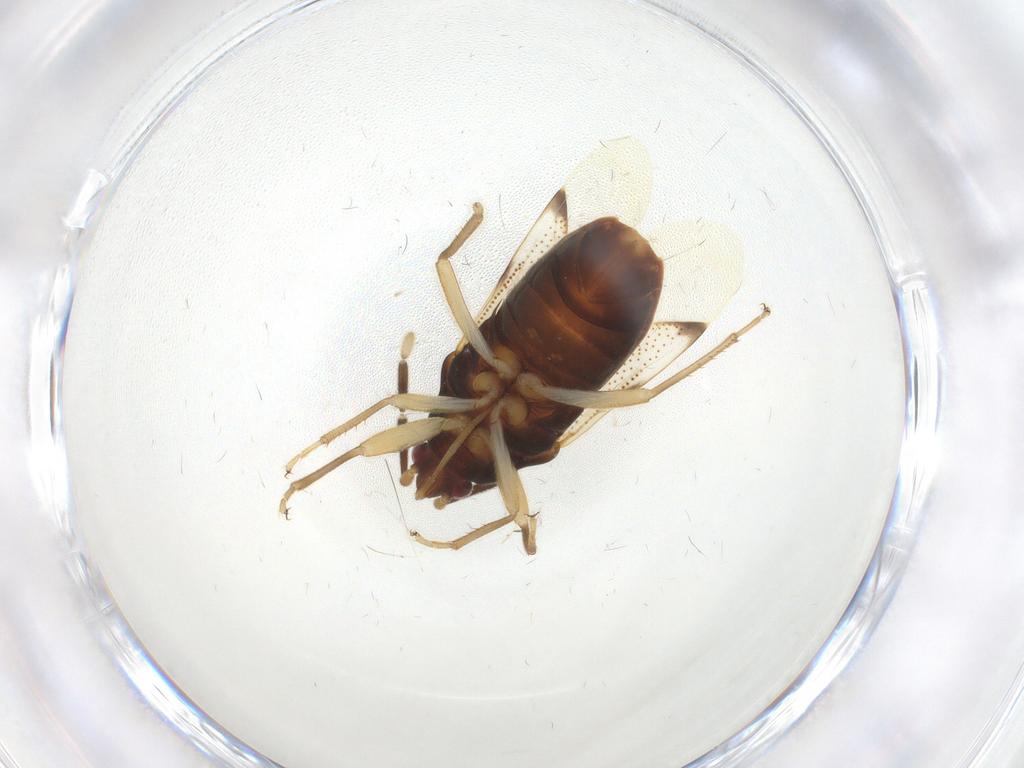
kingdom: Animalia
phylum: Arthropoda
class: Insecta
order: Hemiptera
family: Rhyparochromidae
